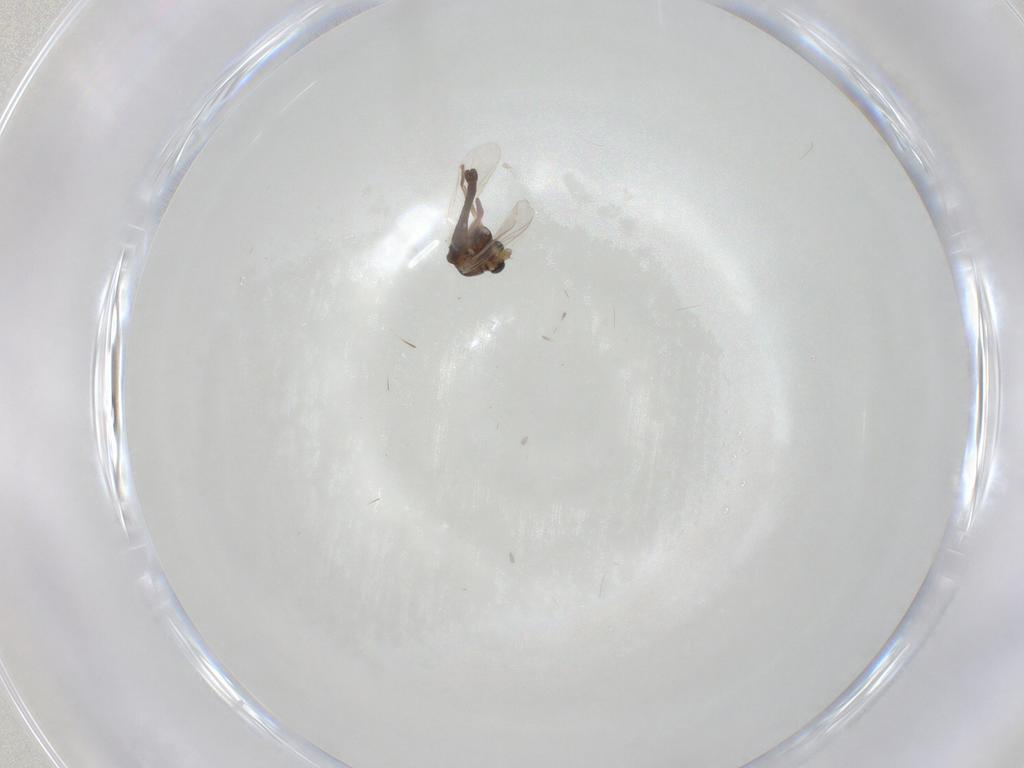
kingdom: Animalia
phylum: Arthropoda
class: Insecta
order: Diptera
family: Chironomidae
